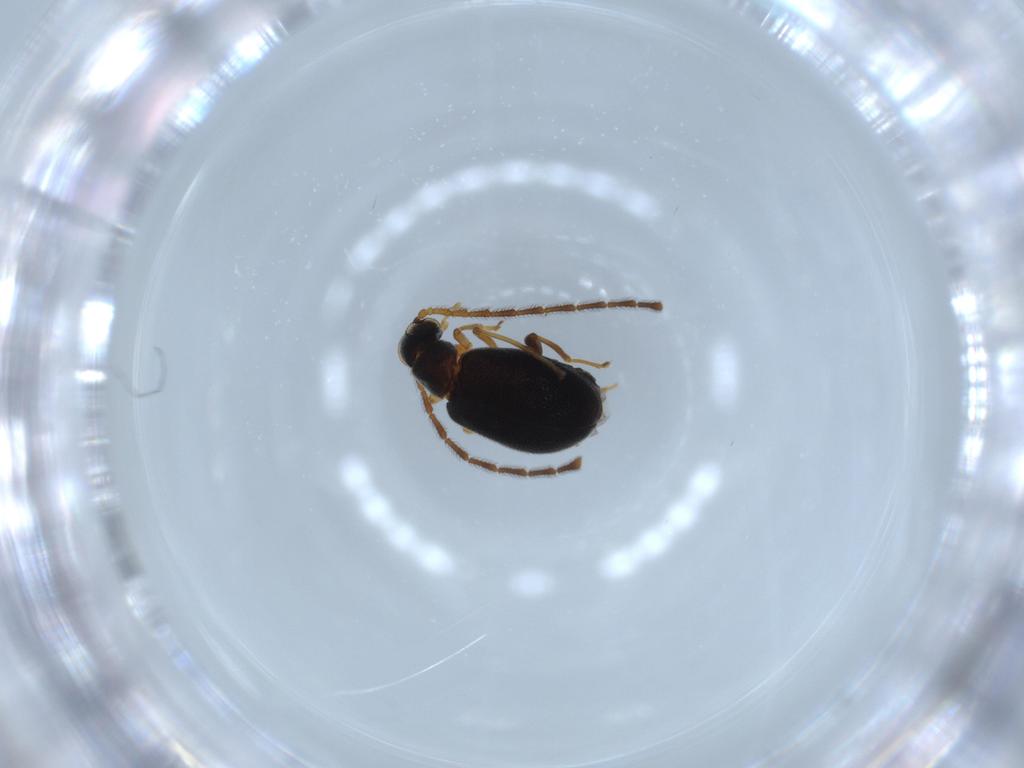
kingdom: Animalia
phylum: Arthropoda
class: Insecta
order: Coleoptera
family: Aderidae
